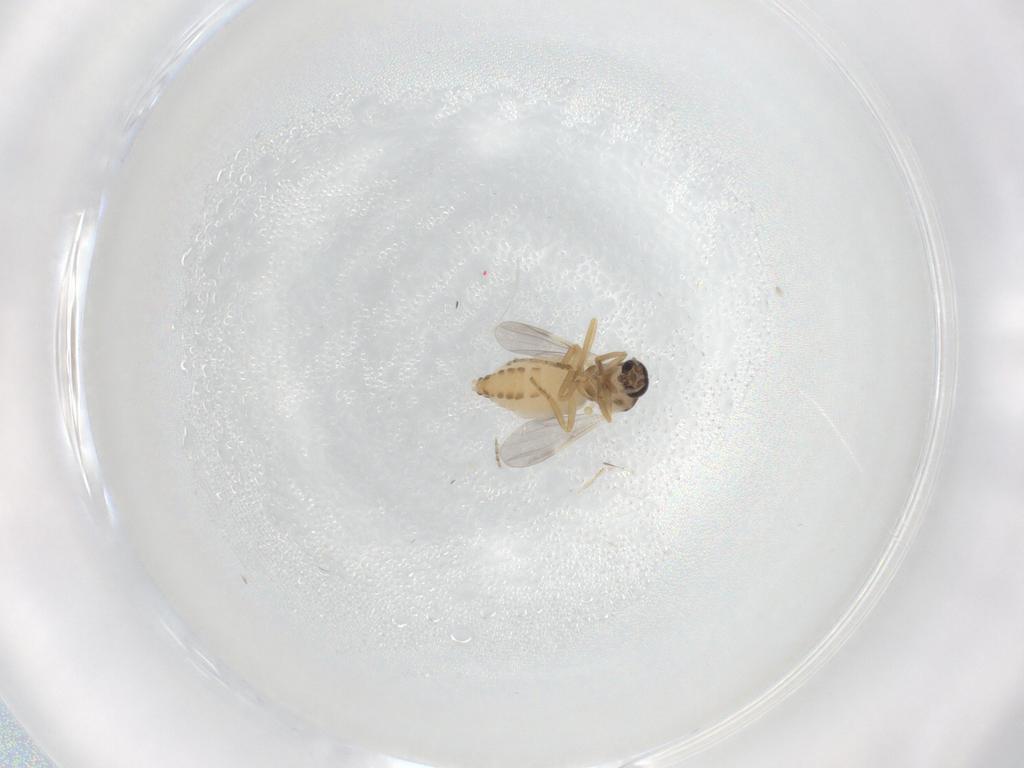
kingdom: Animalia
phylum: Arthropoda
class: Insecta
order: Diptera
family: Ceratopogonidae
